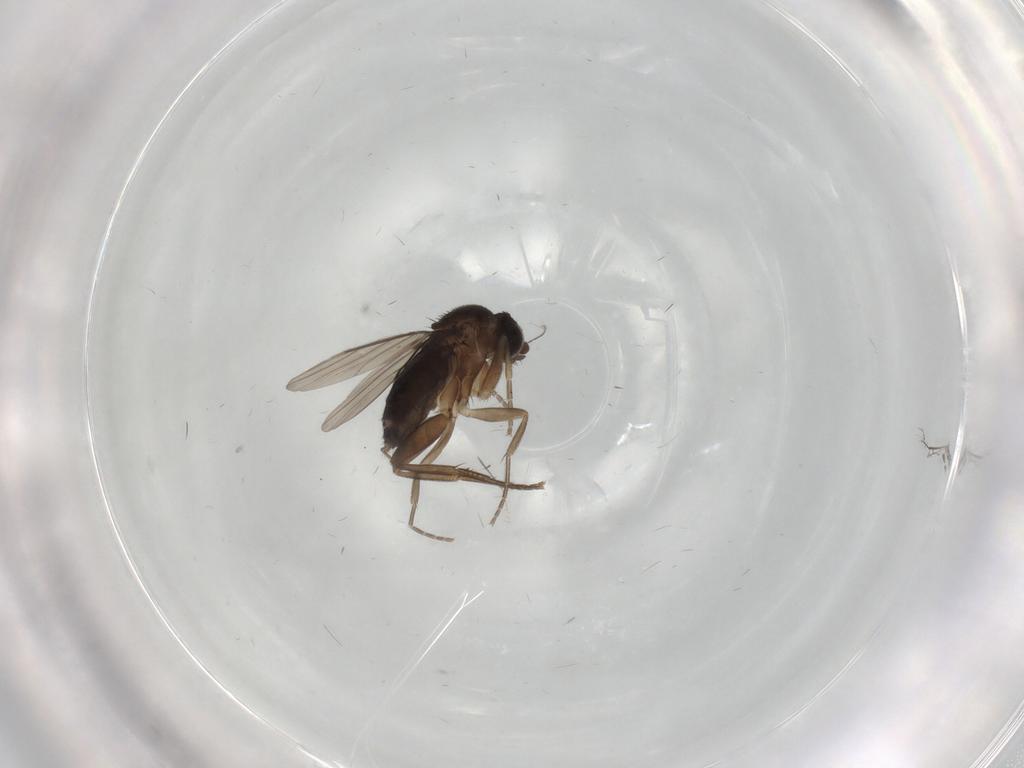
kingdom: Animalia
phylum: Arthropoda
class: Insecta
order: Diptera
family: Phoridae
